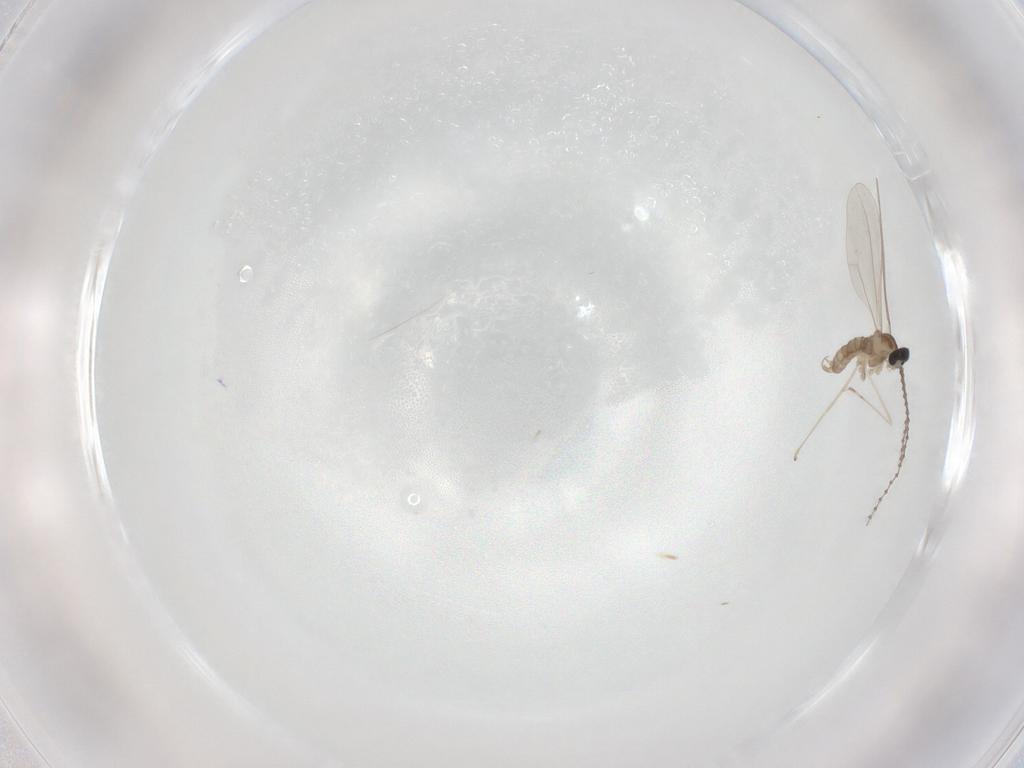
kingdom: Animalia
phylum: Arthropoda
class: Insecta
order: Diptera
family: Cecidomyiidae
